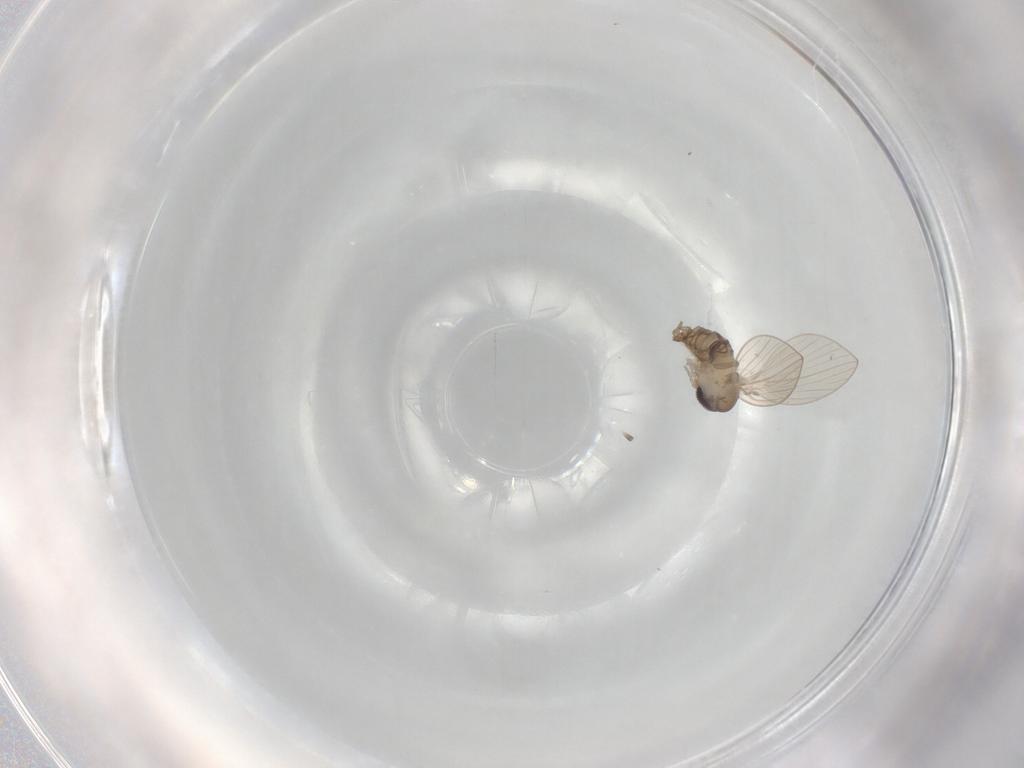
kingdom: Animalia
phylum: Arthropoda
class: Insecta
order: Diptera
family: Psychodidae
